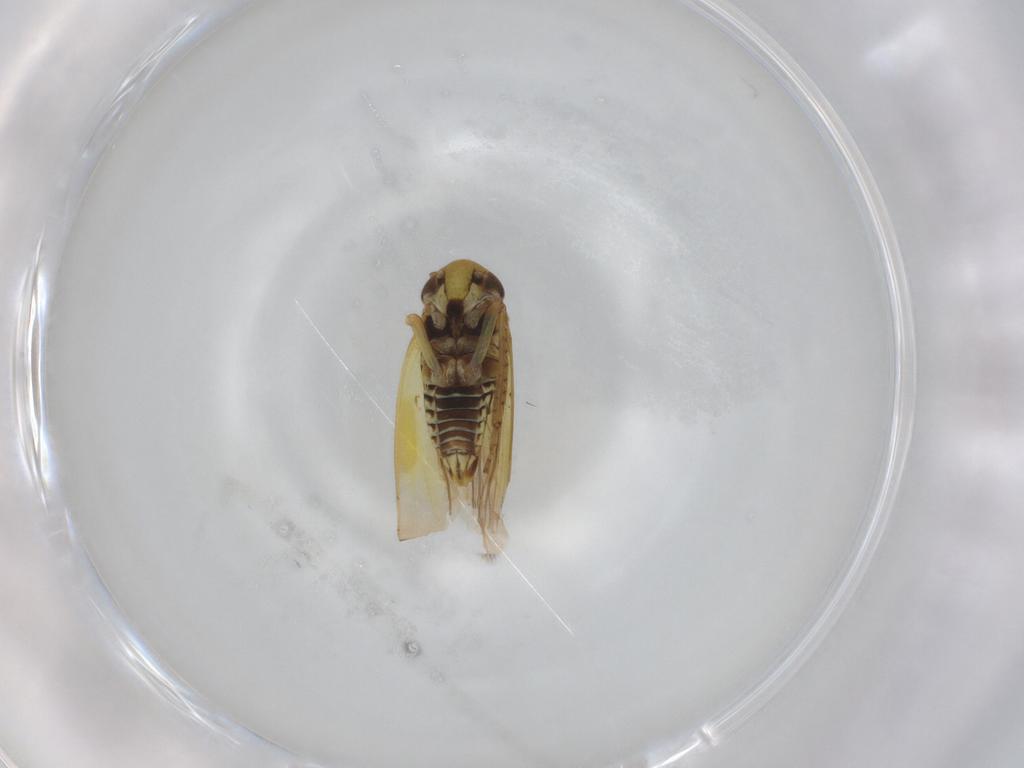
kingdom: Animalia
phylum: Arthropoda
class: Insecta
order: Hemiptera
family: Cicadellidae
